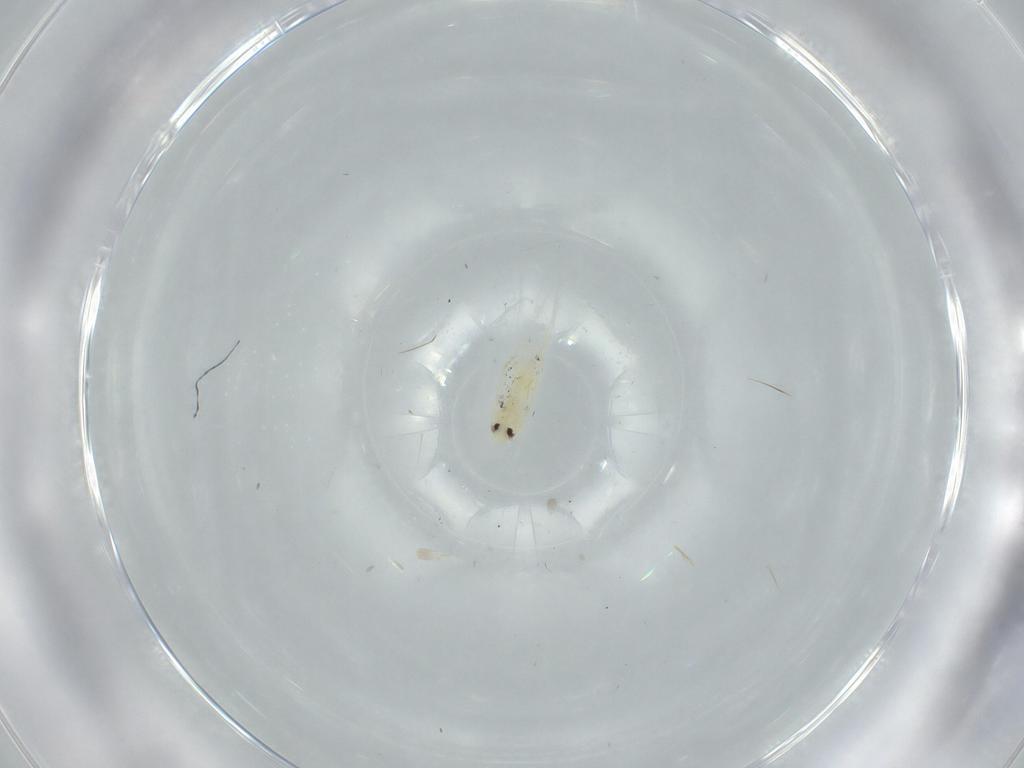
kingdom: Animalia
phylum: Arthropoda
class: Insecta
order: Hemiptera
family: Aleyrodidae
